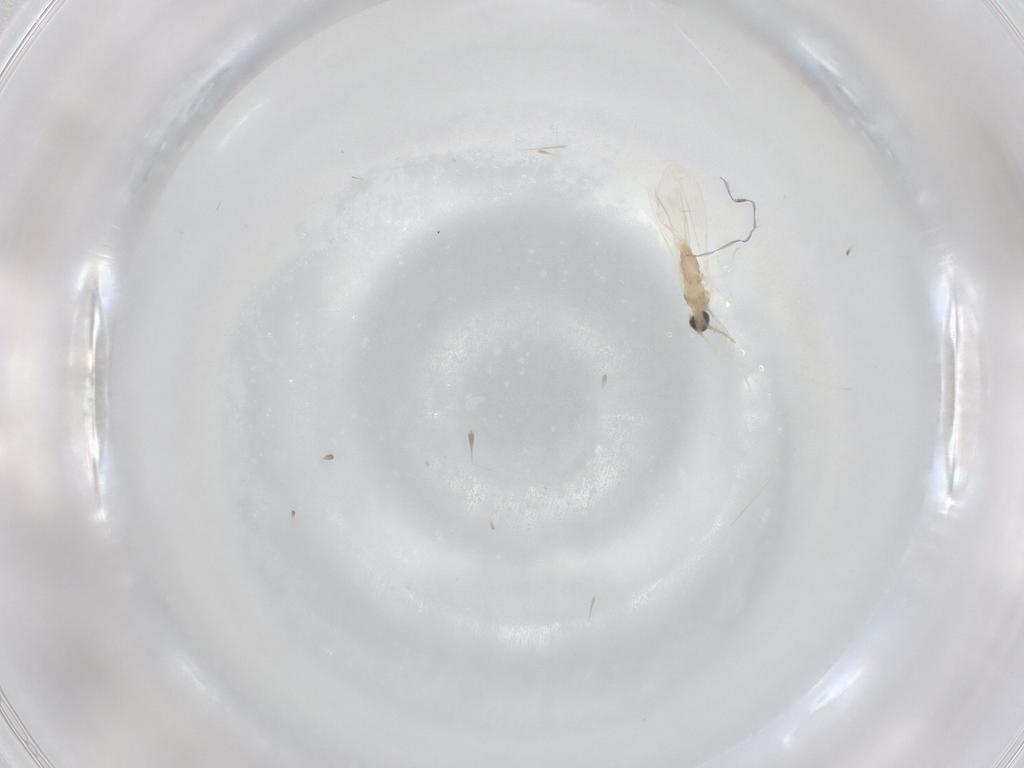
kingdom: Animalia
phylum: Arthropoda
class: Insecta
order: Diptera
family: Cecidomyiidae
